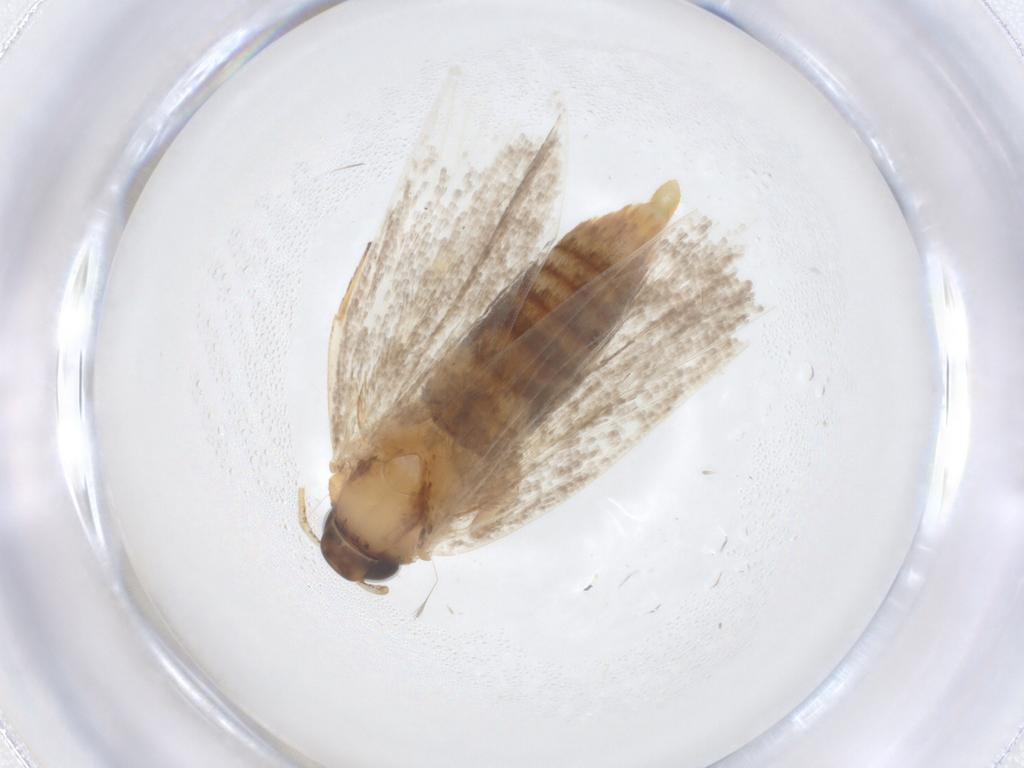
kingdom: Animalia
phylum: Arthropoda
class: Insecta
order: Lepidoptera
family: Oecophoridae
